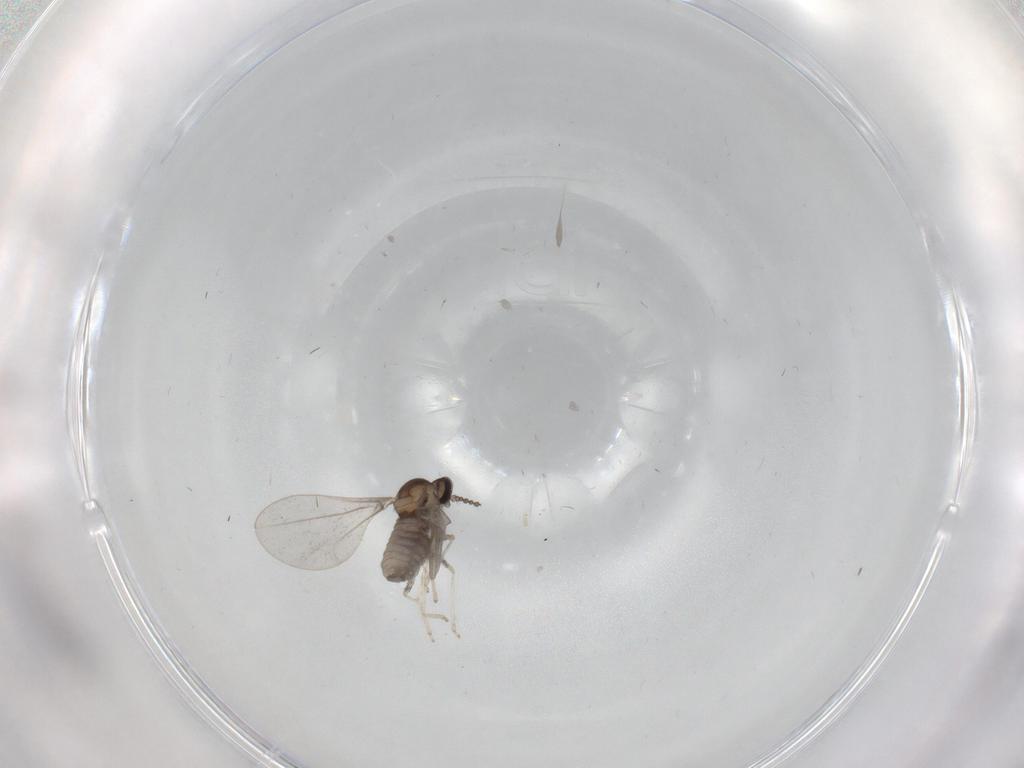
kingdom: Animalia
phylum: Arthropoda
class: Insecta
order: Diptera
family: Cecidomyiidae
